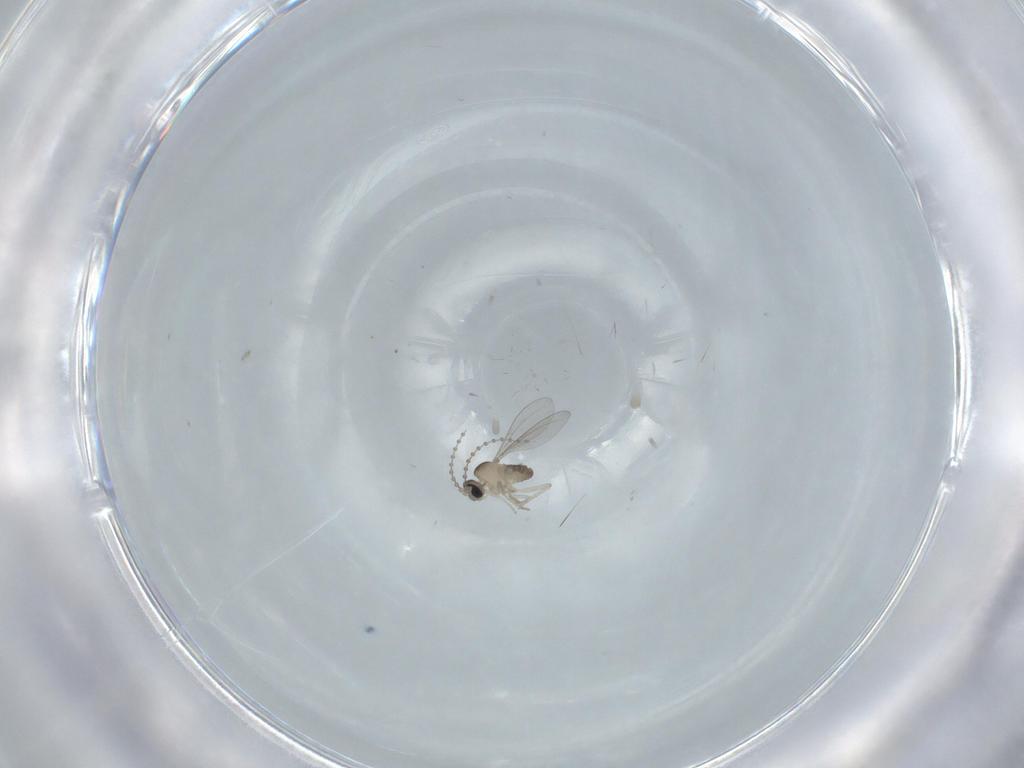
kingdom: Animalia
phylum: Arthropoda
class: Insecta
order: Diptera
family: Cecidomyiidae
